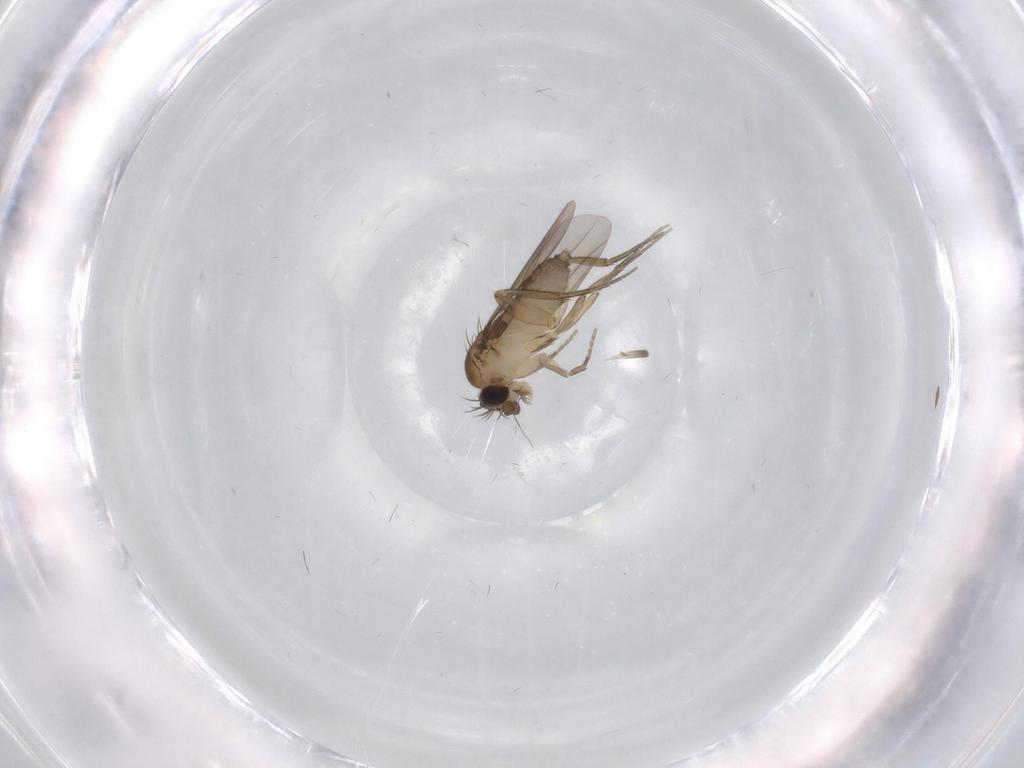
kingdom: Animalia
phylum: Arthropoda
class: Insecta
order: Diptera
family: Phoridae
